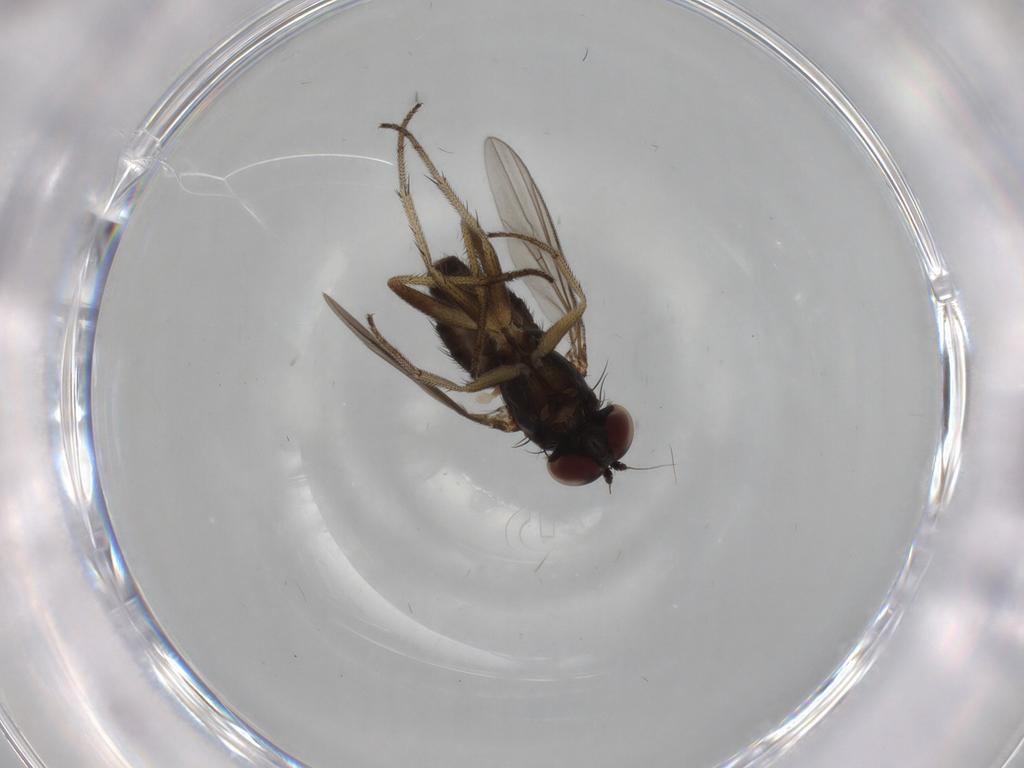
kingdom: Animalia
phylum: Arthropoda
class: Insecta
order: Diptera
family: Dolichopodidae
